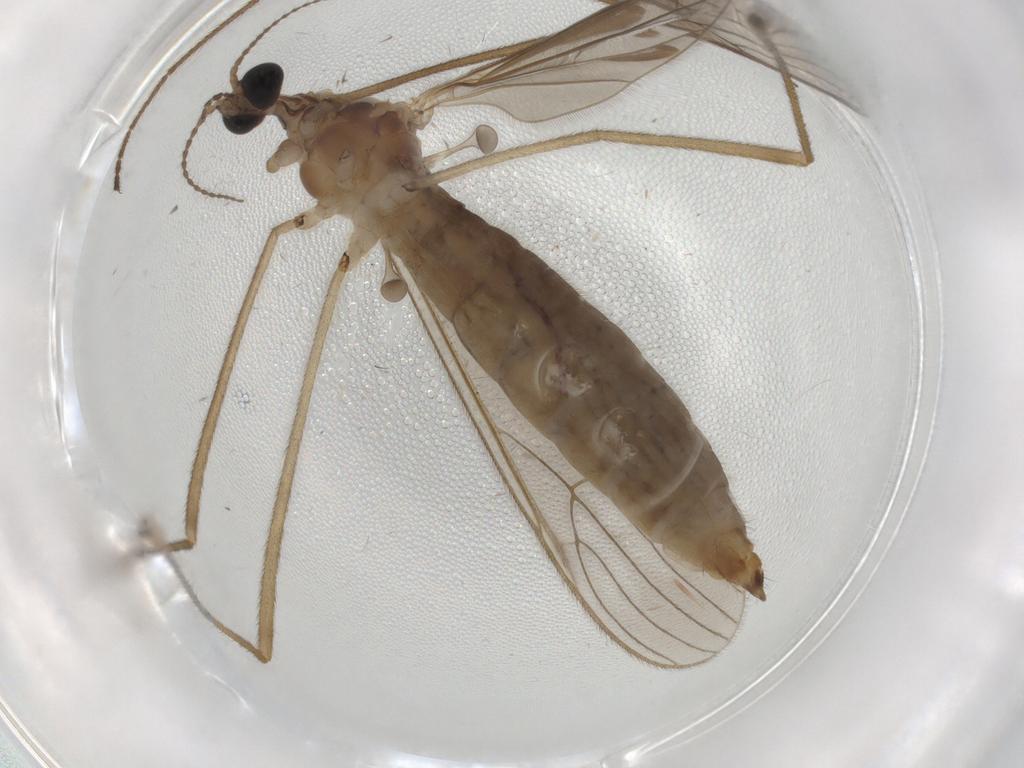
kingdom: Animalia
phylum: Arthropoda
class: Insecta
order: Diptera
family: Limoniidae
